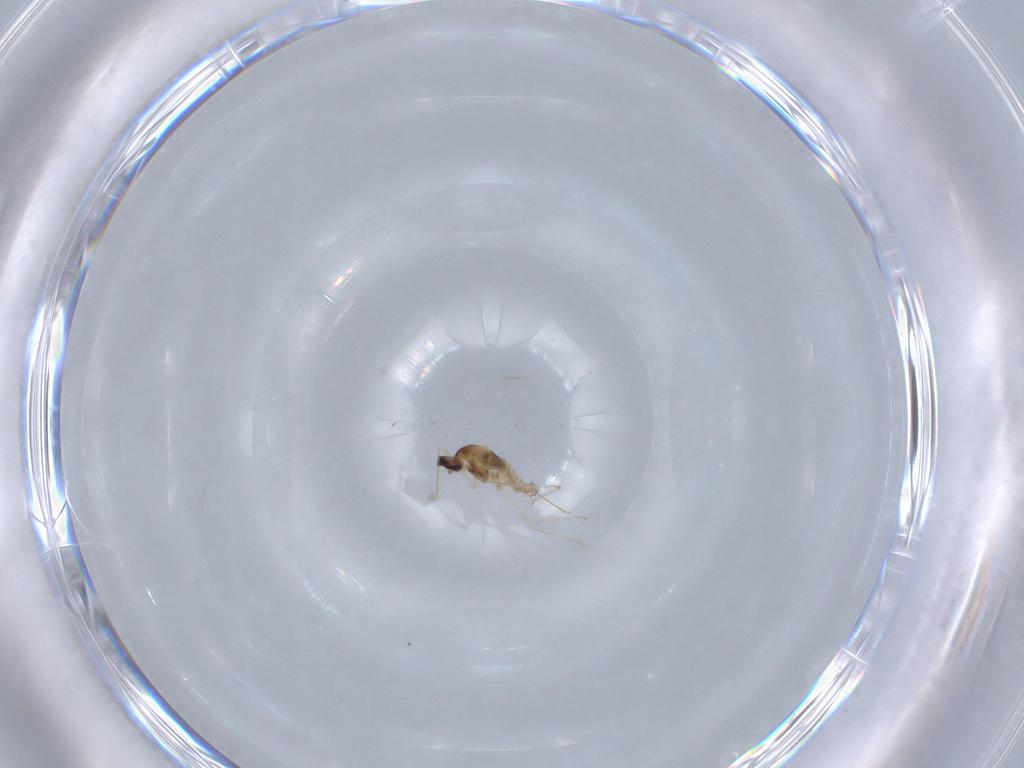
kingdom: Animalia
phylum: Arthropoda
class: Insecta
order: Diptera
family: Cecidomyiidae
